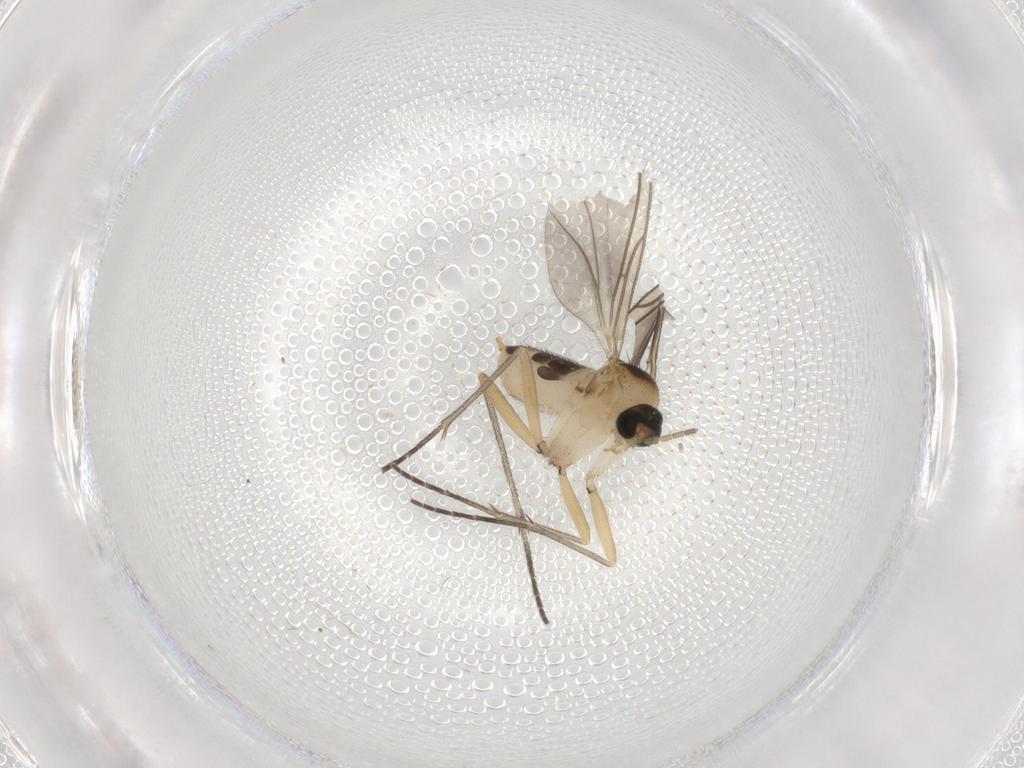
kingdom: Animalia
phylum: Arthropoda
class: Insecta
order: Diptera
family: Sciaridae
